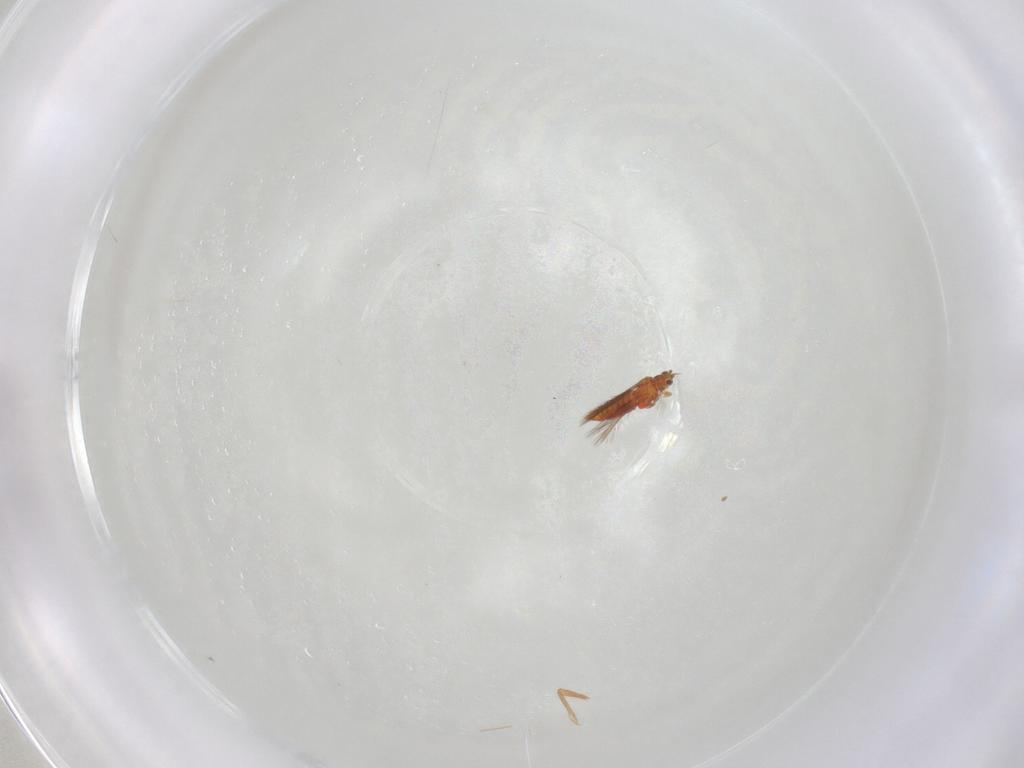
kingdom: Animalia
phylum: Arthropoda
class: Insecta
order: Thysanoptera
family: Thripidae
